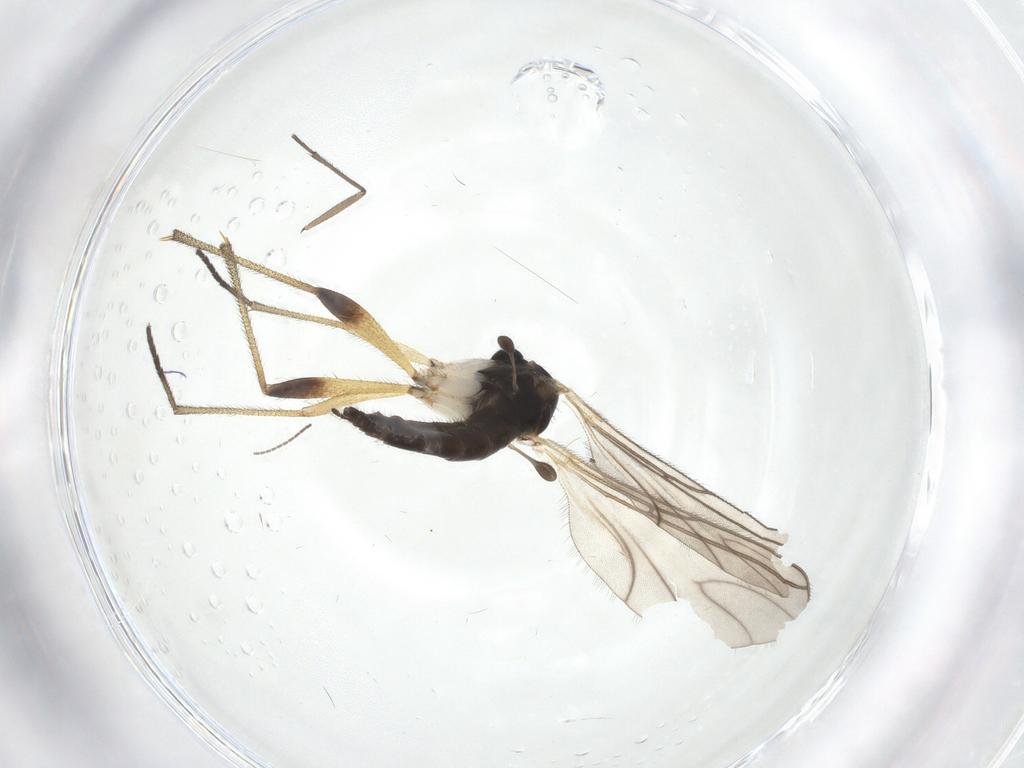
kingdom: Animalia
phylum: Arthropoda
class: Insecta
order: Diptera
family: Sciaridae
